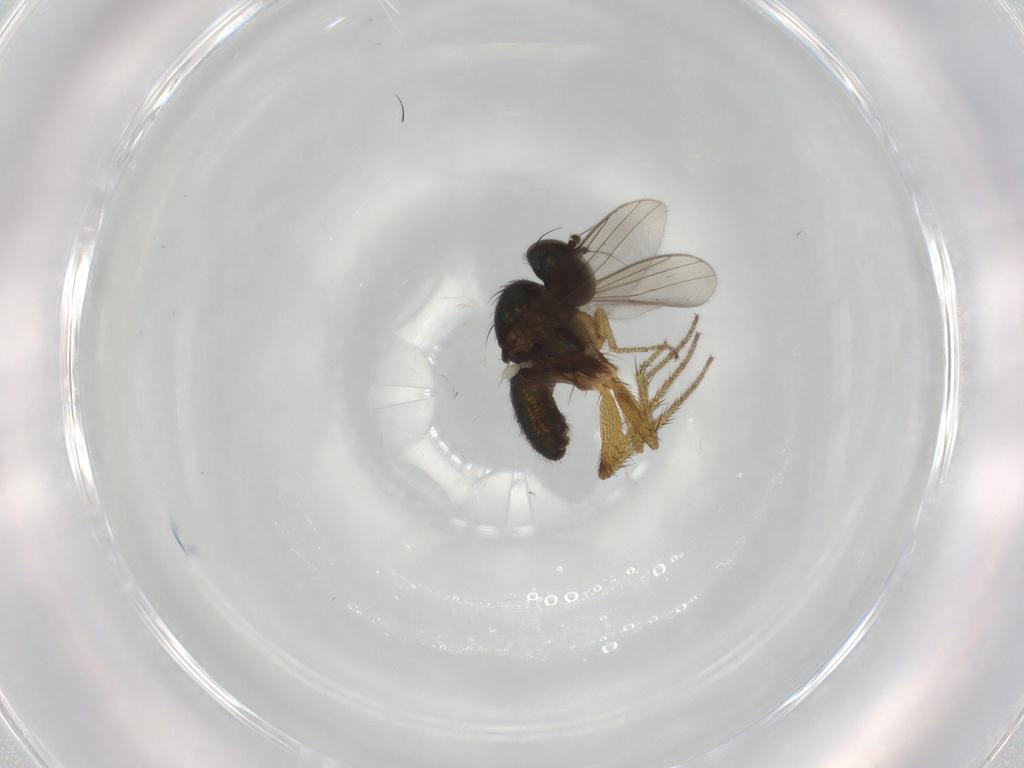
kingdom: Animalia
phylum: Arthropoda
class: Insecta
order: Diptera
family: Dolichopodidae
